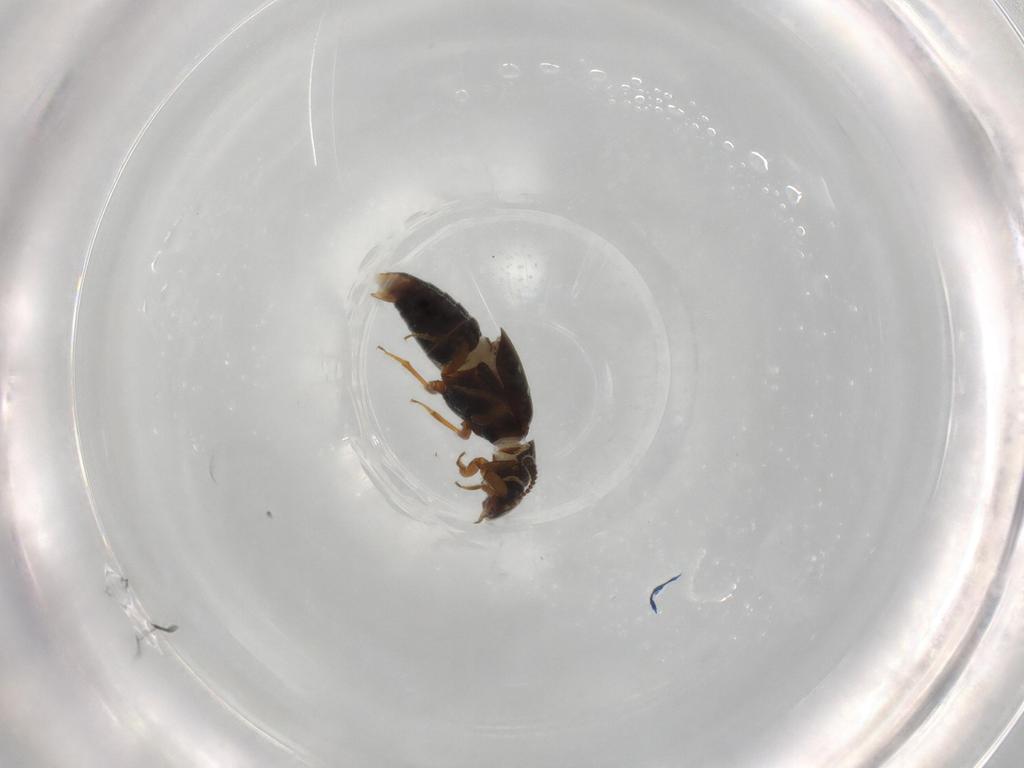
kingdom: Animalia
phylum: Arthropoda
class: Insecta
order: Coleoptera
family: Staphylinidae
